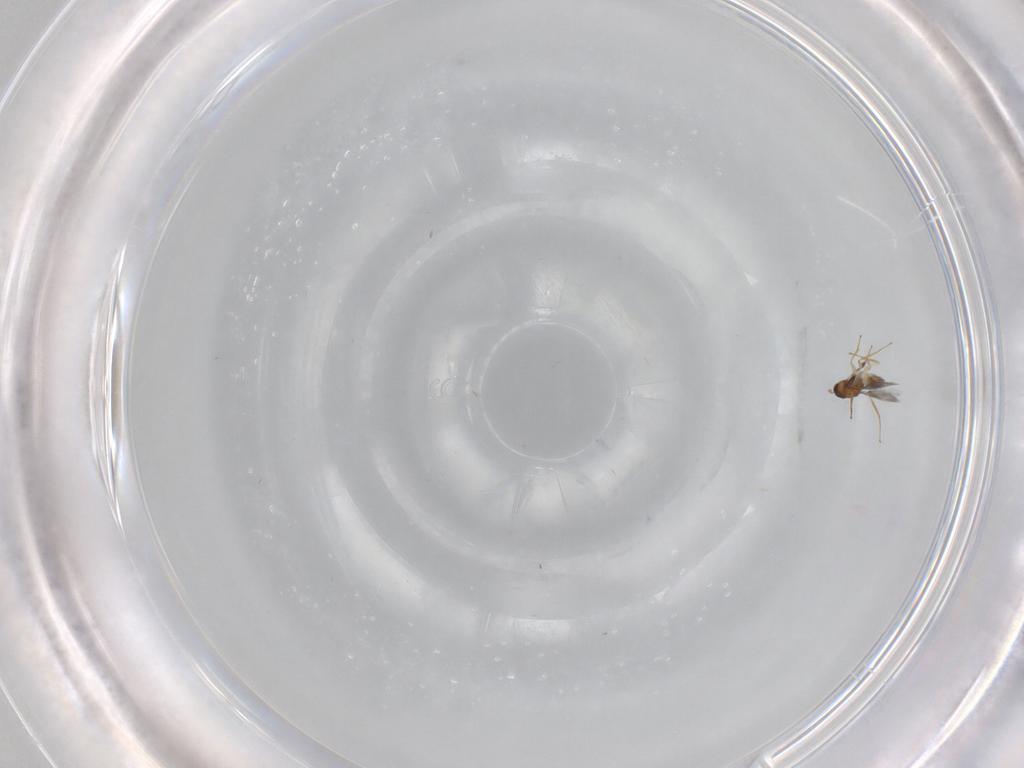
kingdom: Animalia
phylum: Arthropoda
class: Insecta
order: Hymenoptera
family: Mymaridae
